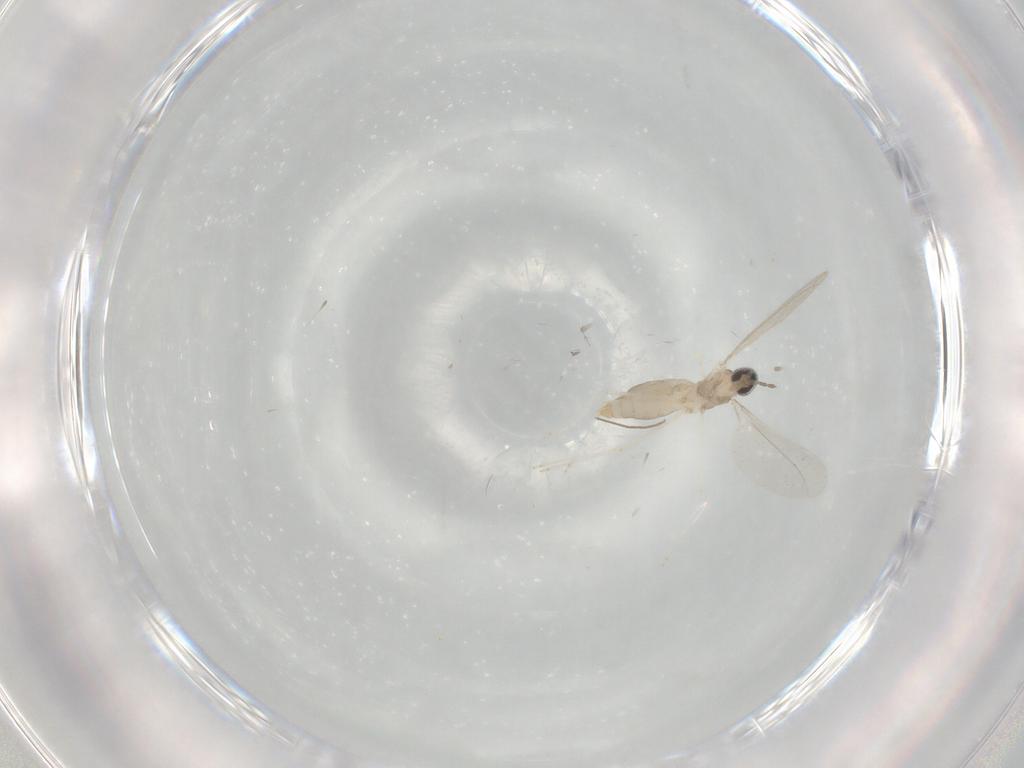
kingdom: Animalia
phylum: Arthropoda
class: Insecta
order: Diptera
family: Cecidomyiidae
